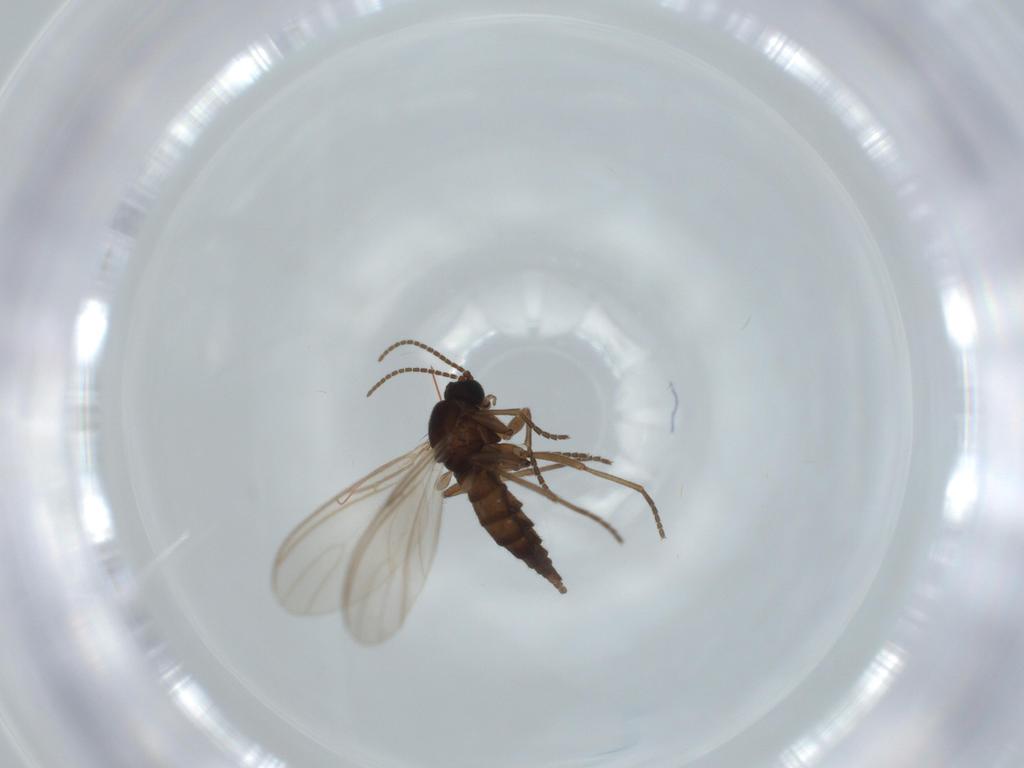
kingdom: Animalia
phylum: Arthropoda
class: Insecta
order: Diptera
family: Sciaridae
